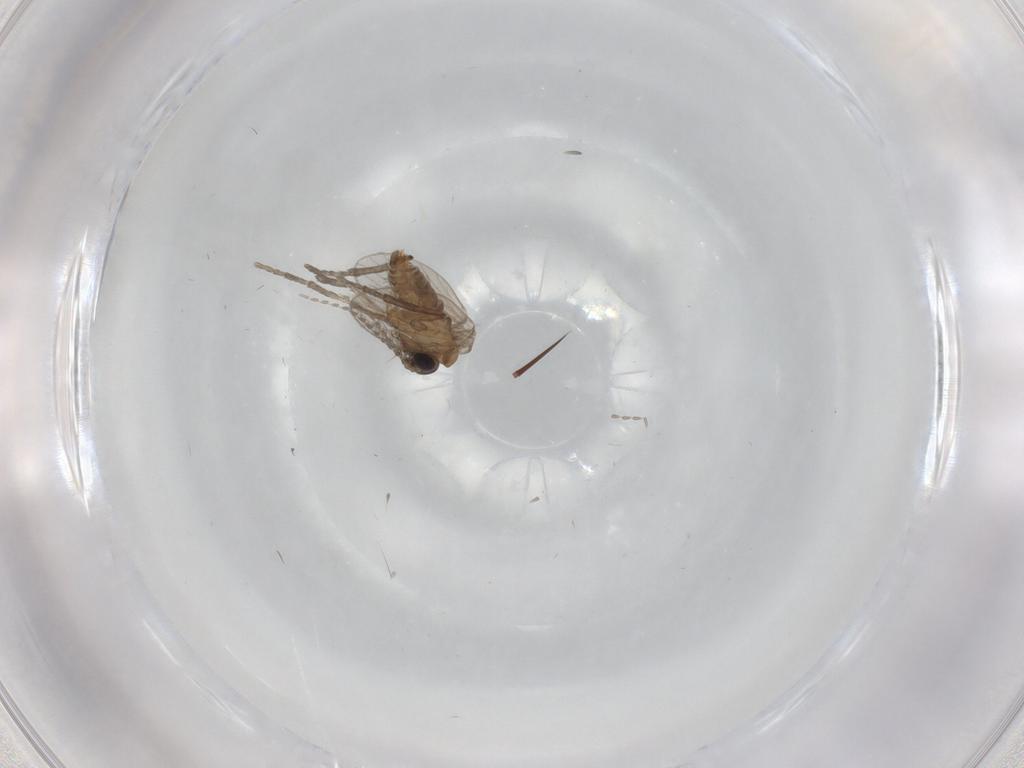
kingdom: Animalia
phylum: Arthropoda
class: Insecta
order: Diptera
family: Psychodidae
